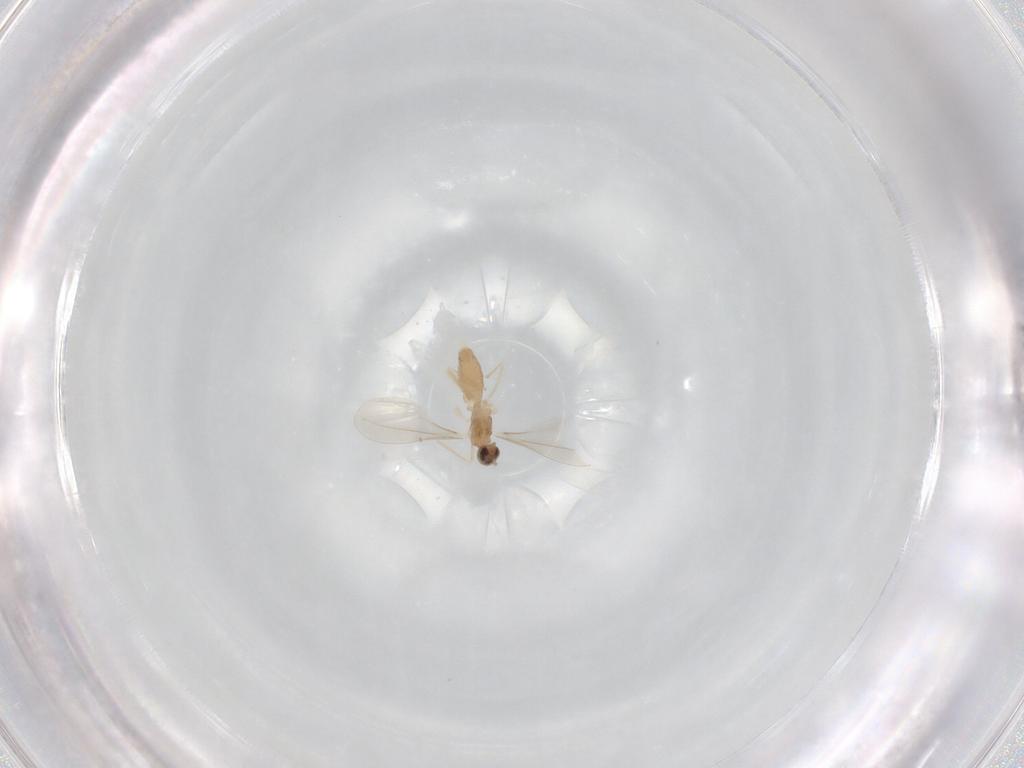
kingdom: Animalia
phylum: Arthropoda
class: Insecta
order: Diptera
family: Cecidomyiidae
